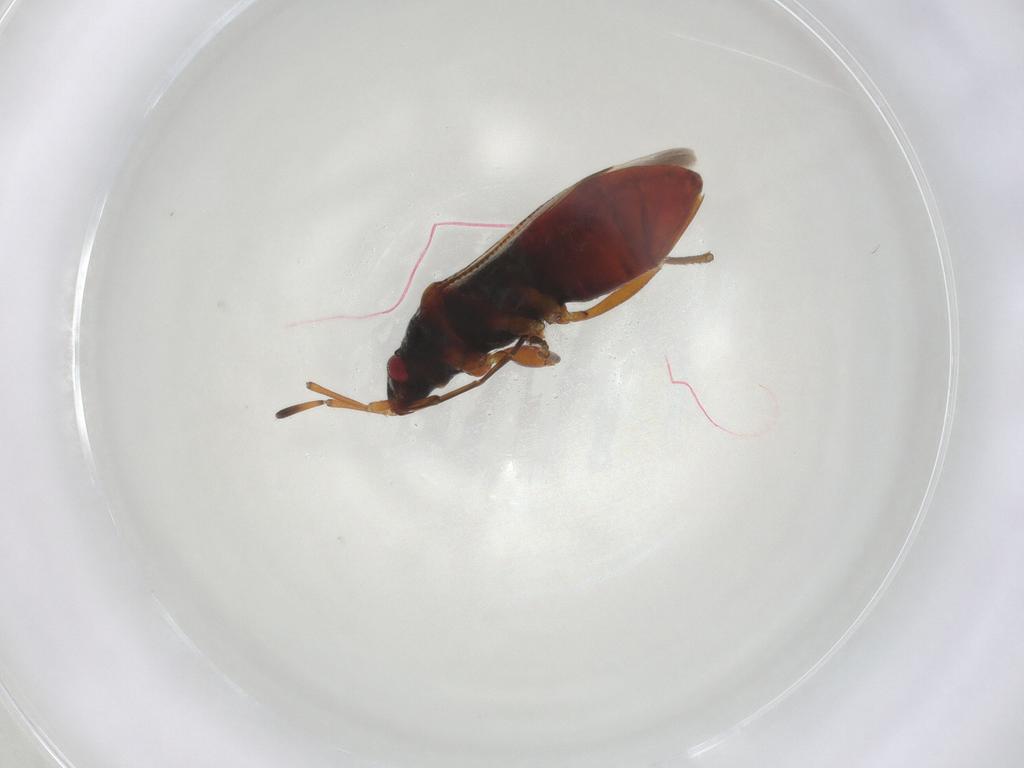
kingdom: Animalia
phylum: Arthropoda
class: Insecta
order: Hemiptera
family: Rhyparochromidae
